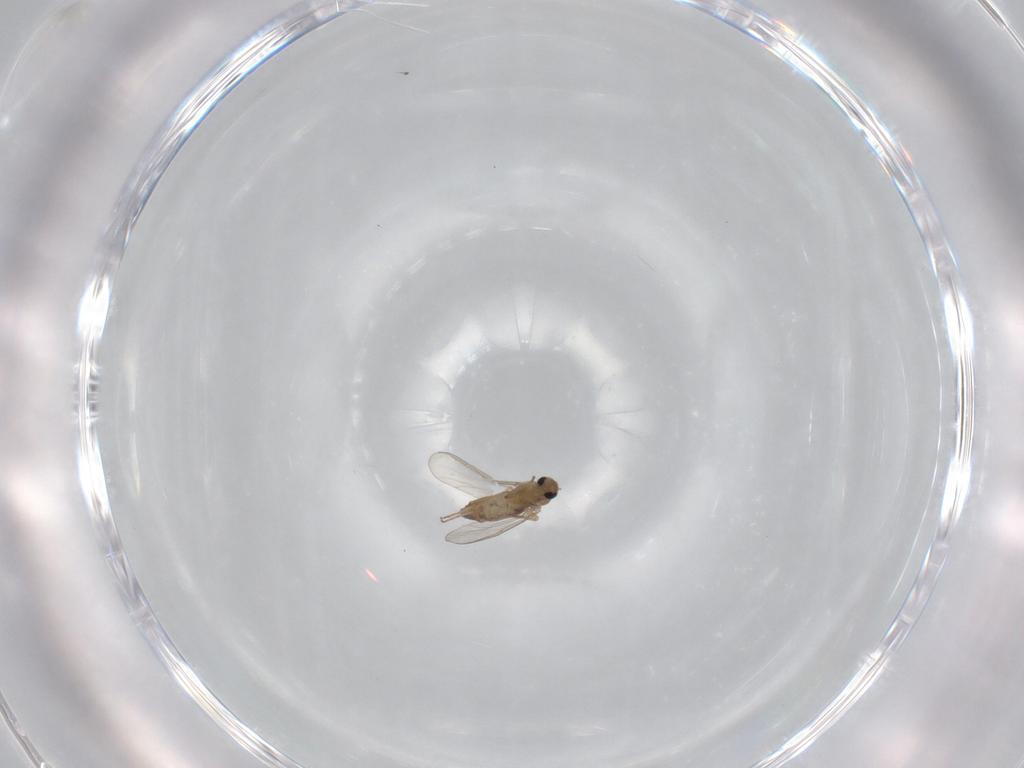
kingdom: Animalia
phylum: Arthropoda
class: Insecta
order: Diptera
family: Chironomidae
